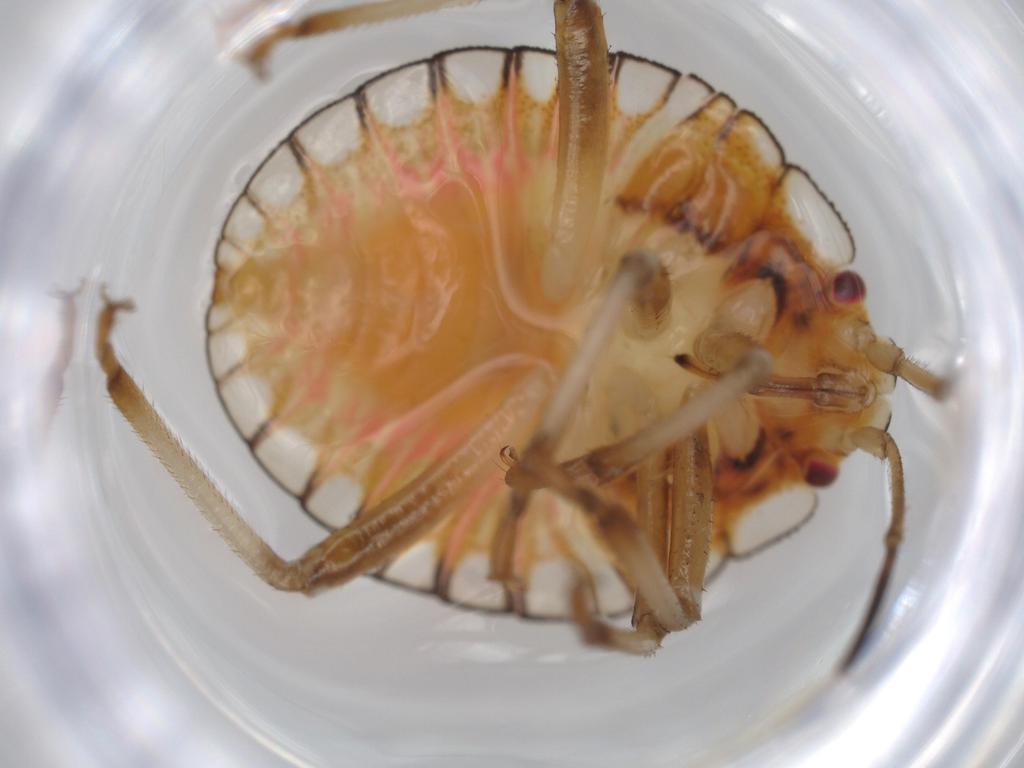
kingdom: Animalia
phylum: Arthropoda
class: Insecta
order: Hemiptera
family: Pentatomidae
